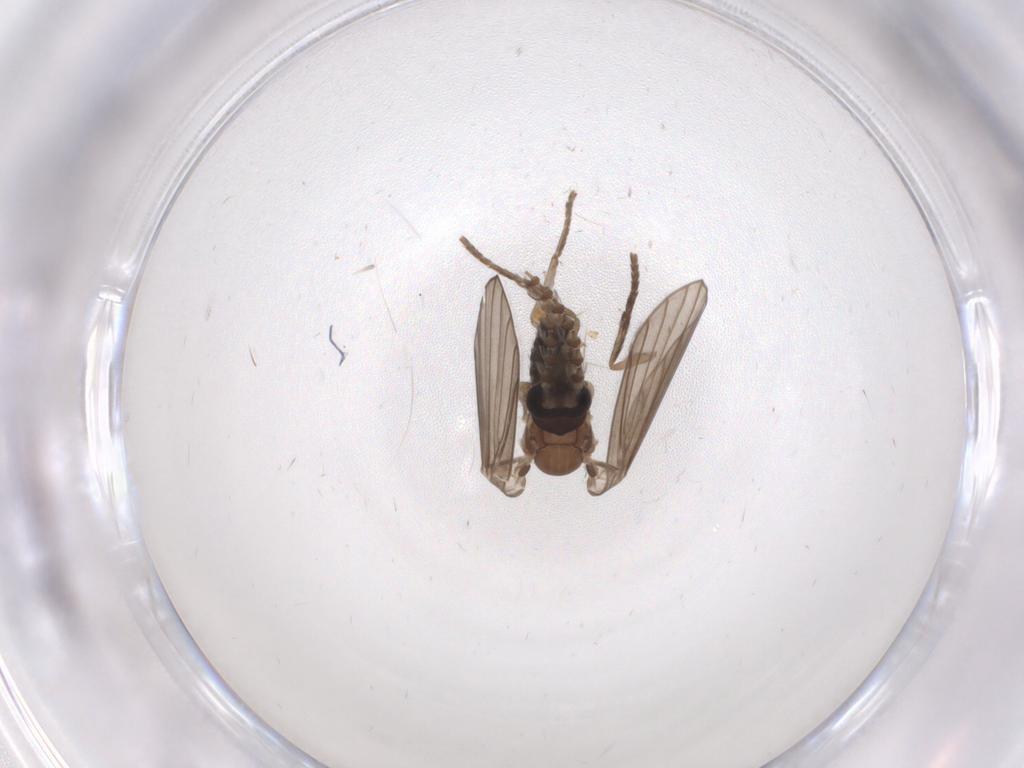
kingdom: Animalia
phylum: Arthropoda
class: Insecta
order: Diptera
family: Psychodidae
